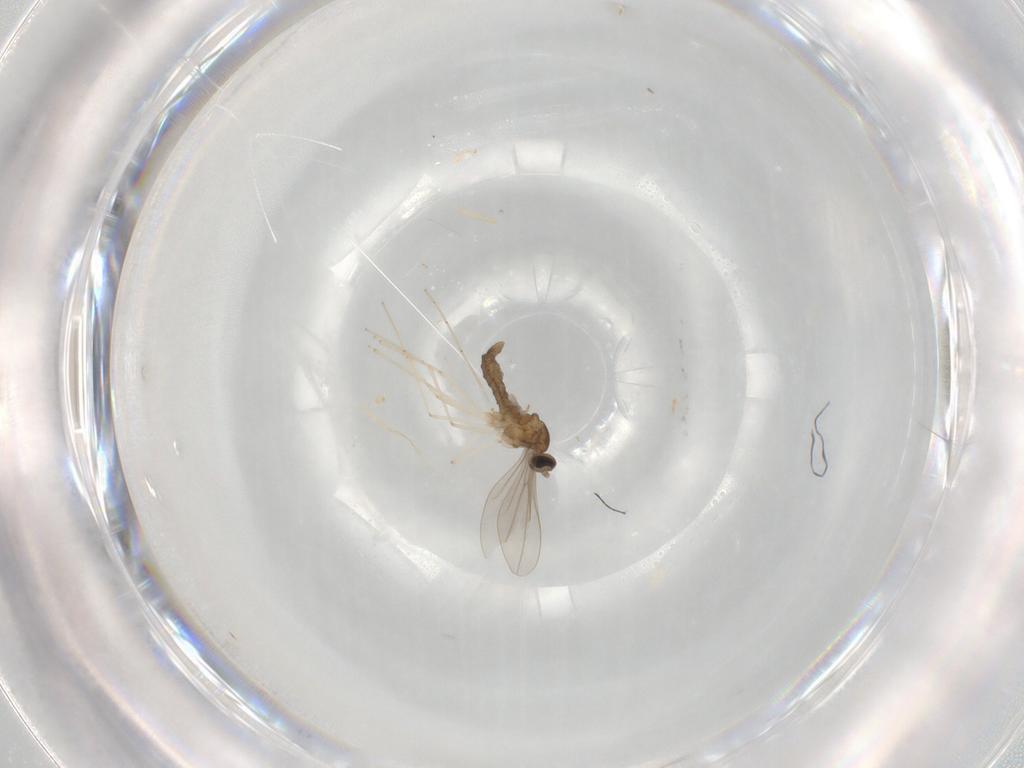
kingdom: Animalia
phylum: Arthropoda
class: Insecta
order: Diptera
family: Cecidomyiidae
